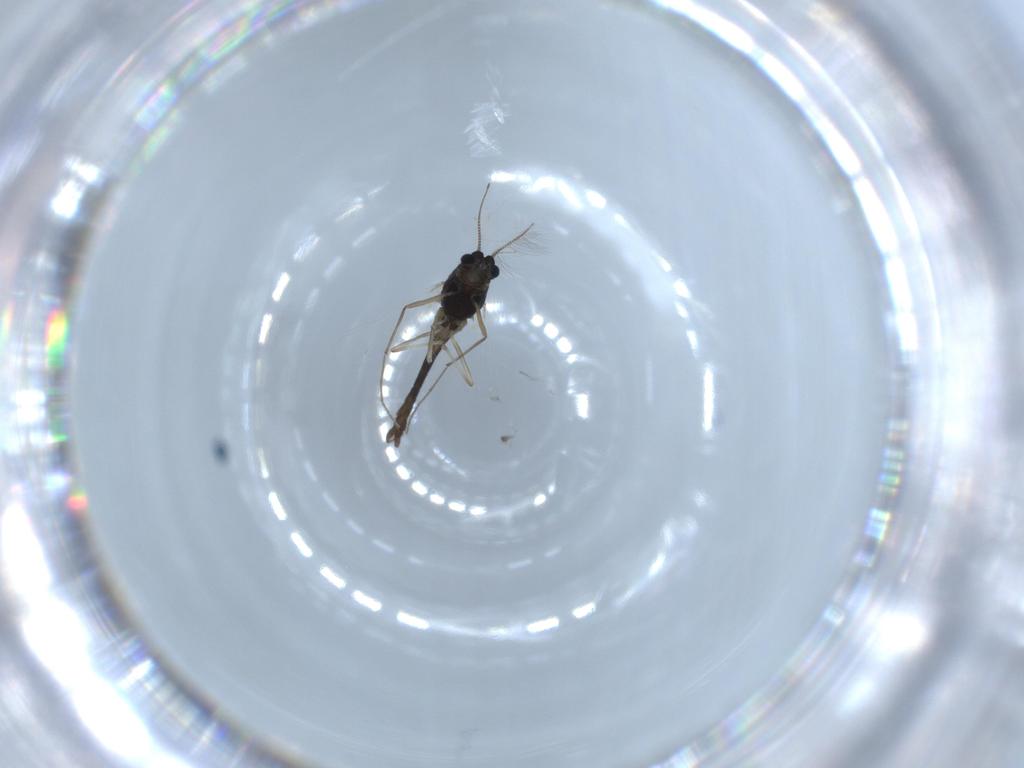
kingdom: Animalia
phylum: Arthropoda
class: Insecta
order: Diptera
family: Chironomidae
